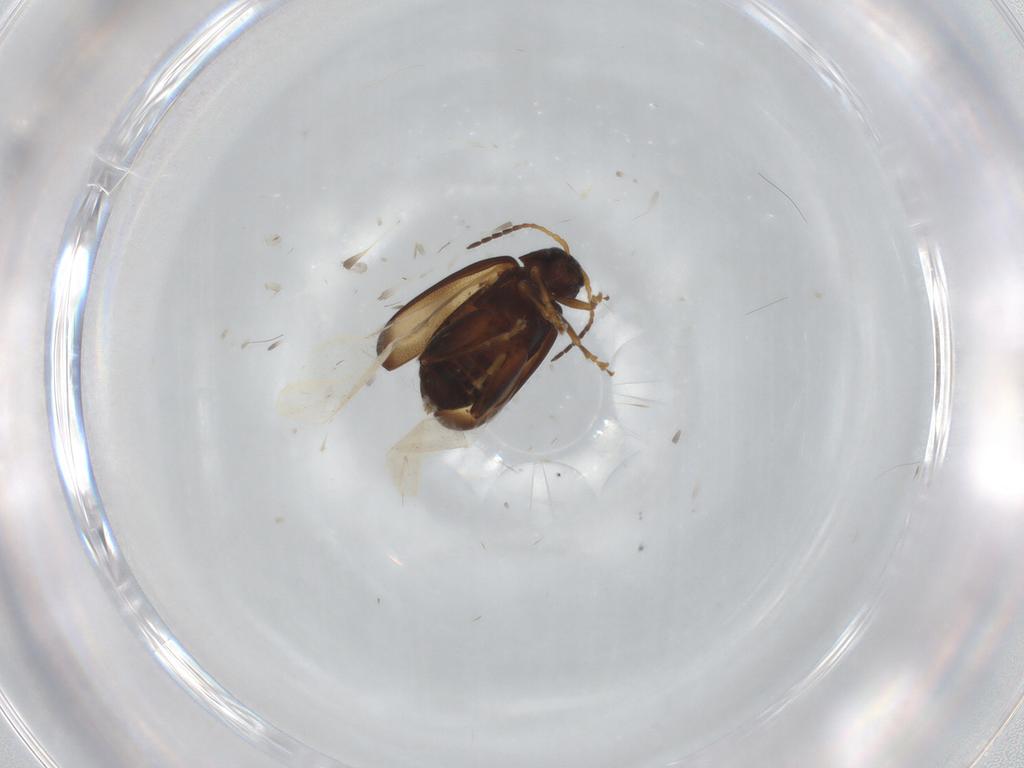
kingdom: Animalia
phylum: Arthropoda
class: Insecta
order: Coleoptera
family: Chrysomelidae
